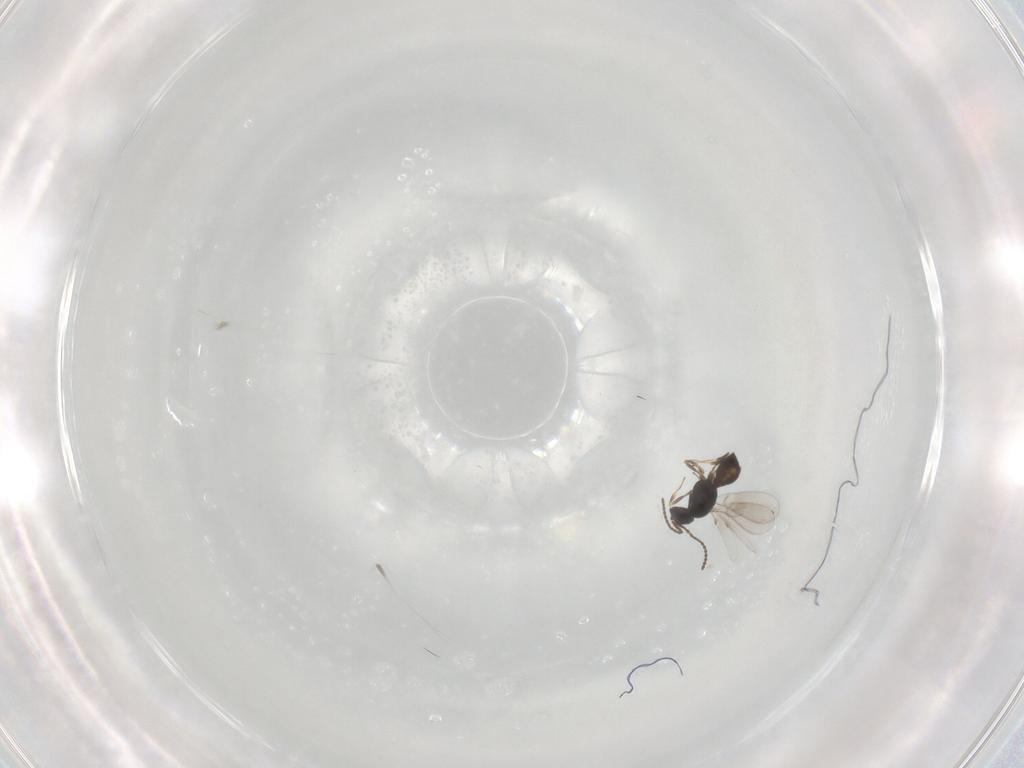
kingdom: Animalia
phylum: Arthropoda
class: Insecta
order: Hymenoptera
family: Scelionidae
